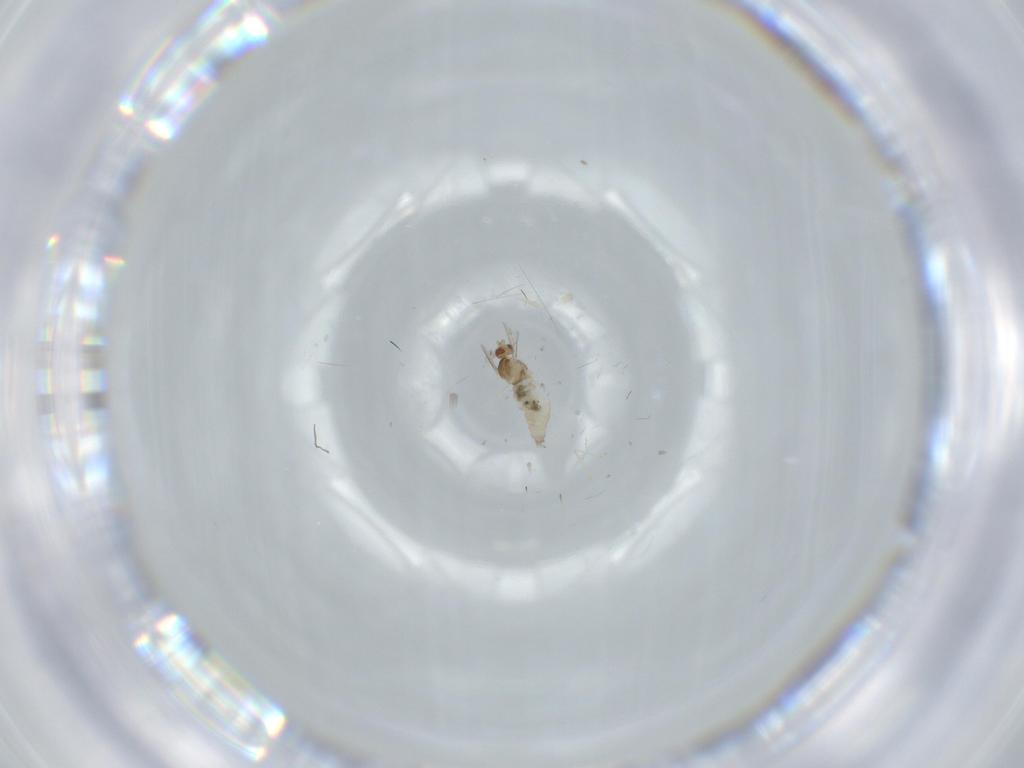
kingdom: Animalia
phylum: Arthropoda
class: Insecta
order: Diptera
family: Cecidomyiidae
